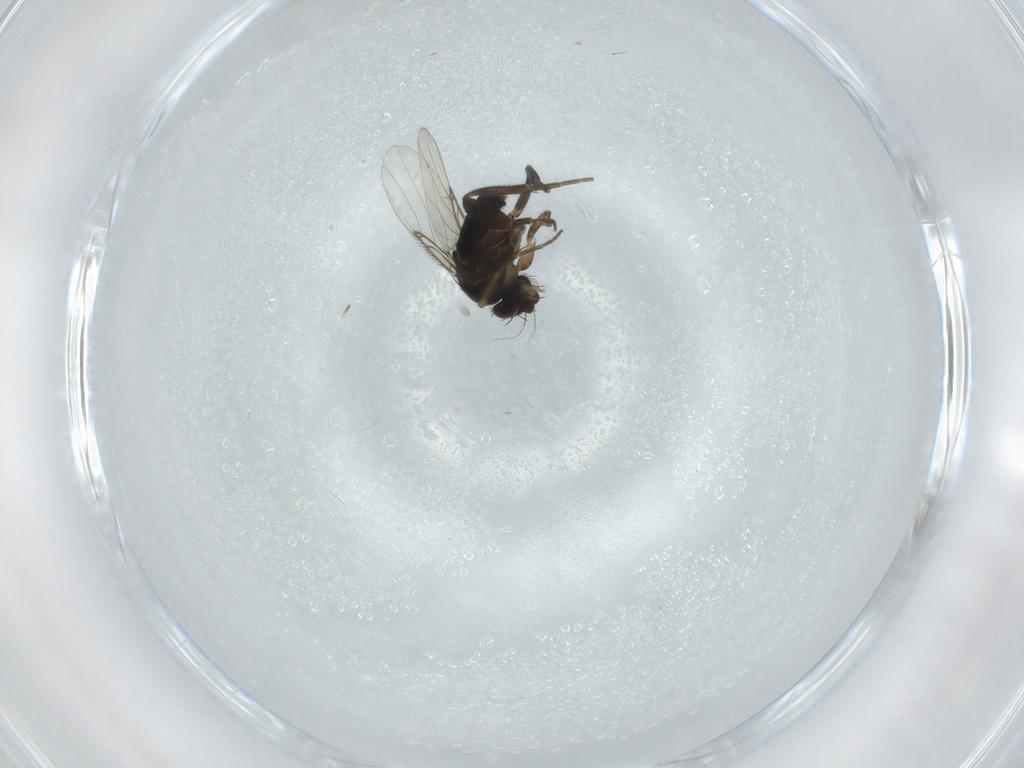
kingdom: Animalia
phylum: Arthropoda
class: Insecta
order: Diptera
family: Phoridae
